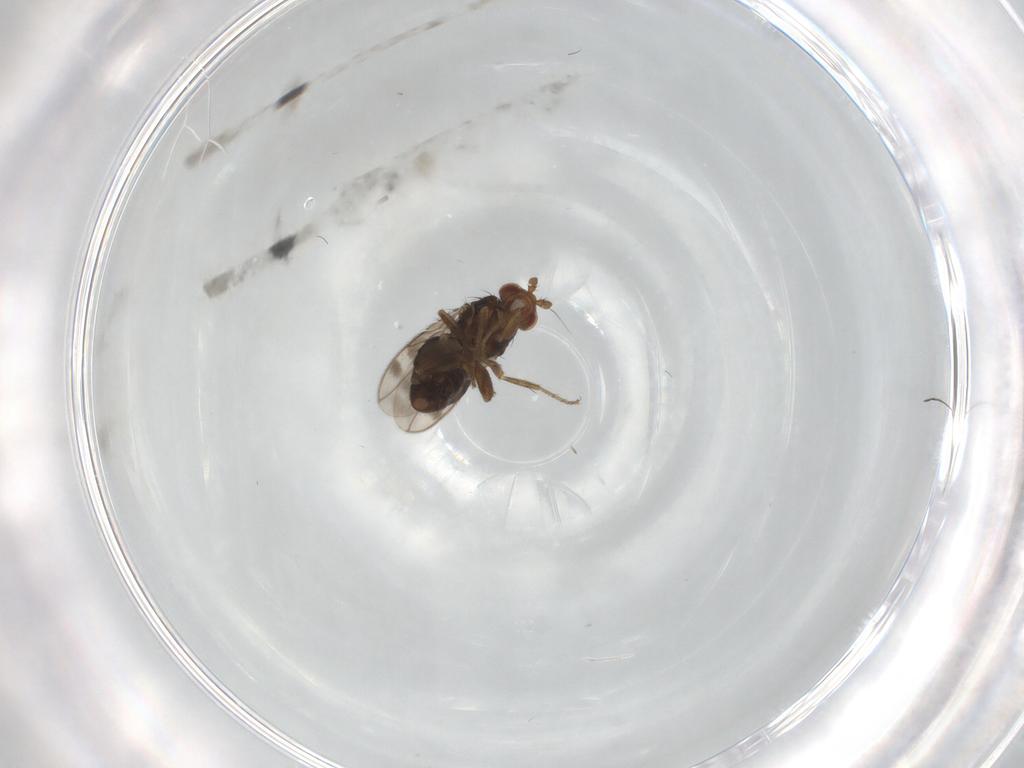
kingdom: Animalia
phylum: Arthropoda
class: Insecta
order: Diptera
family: Sphaeroceridae
